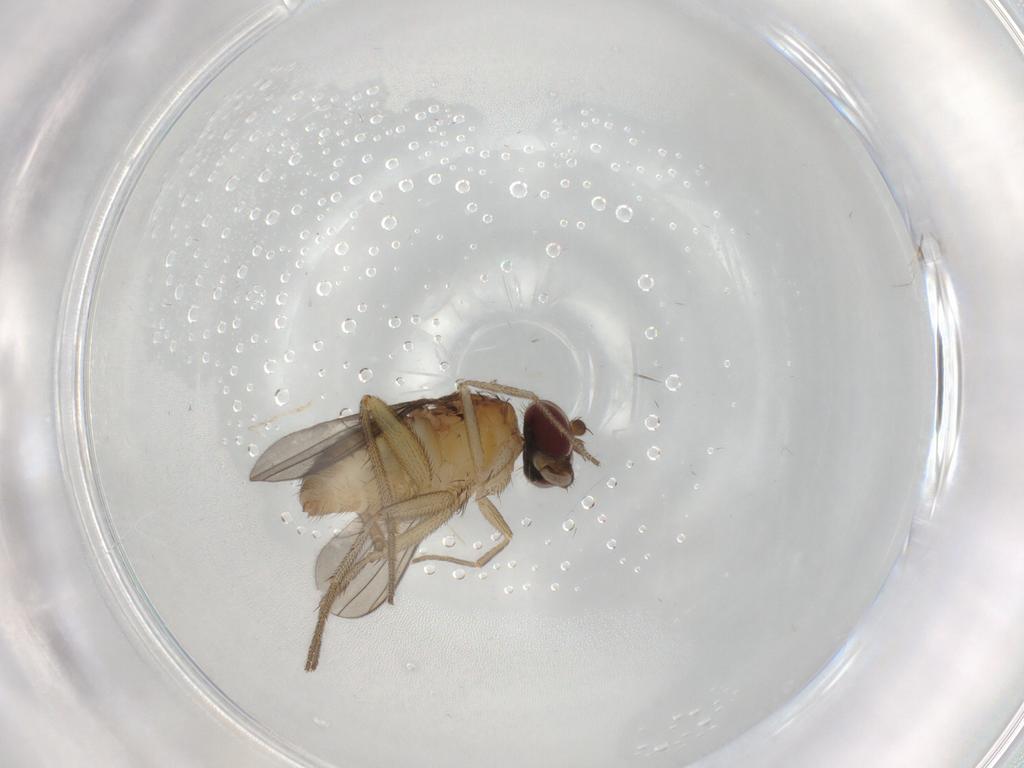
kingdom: Animalia
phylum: Arthropoda
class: Insecta
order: Diptera
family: Dolichopodidae
